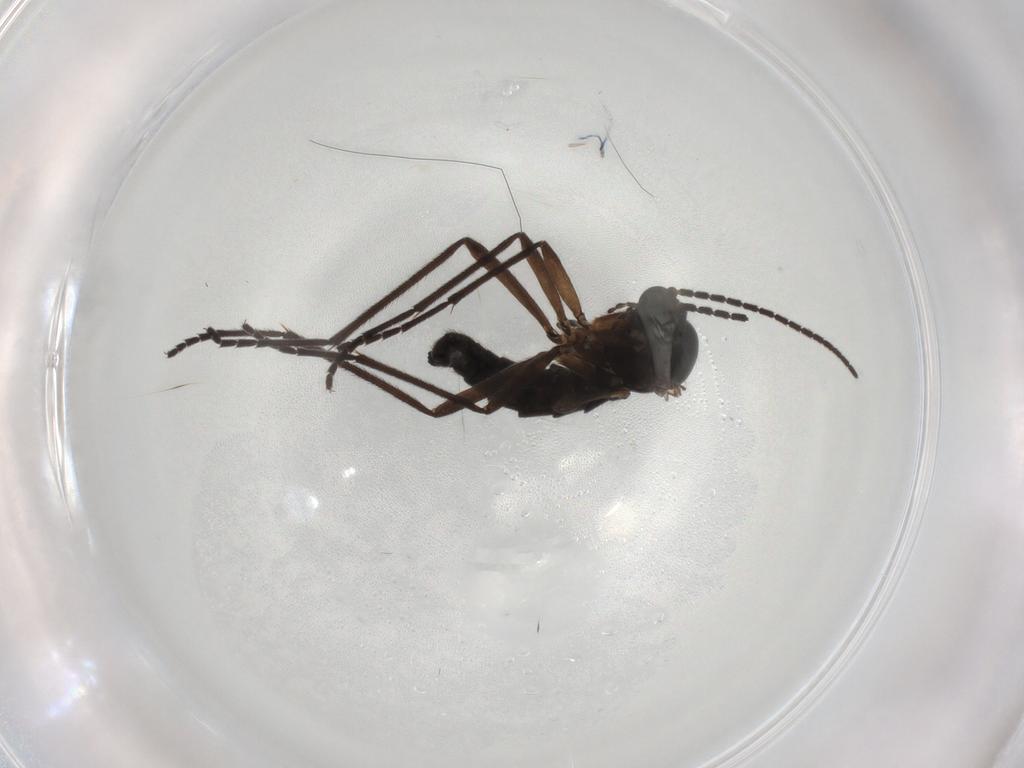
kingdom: Animalia
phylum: Arthropoda
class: Insecta
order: Diptera
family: Sciaridae
